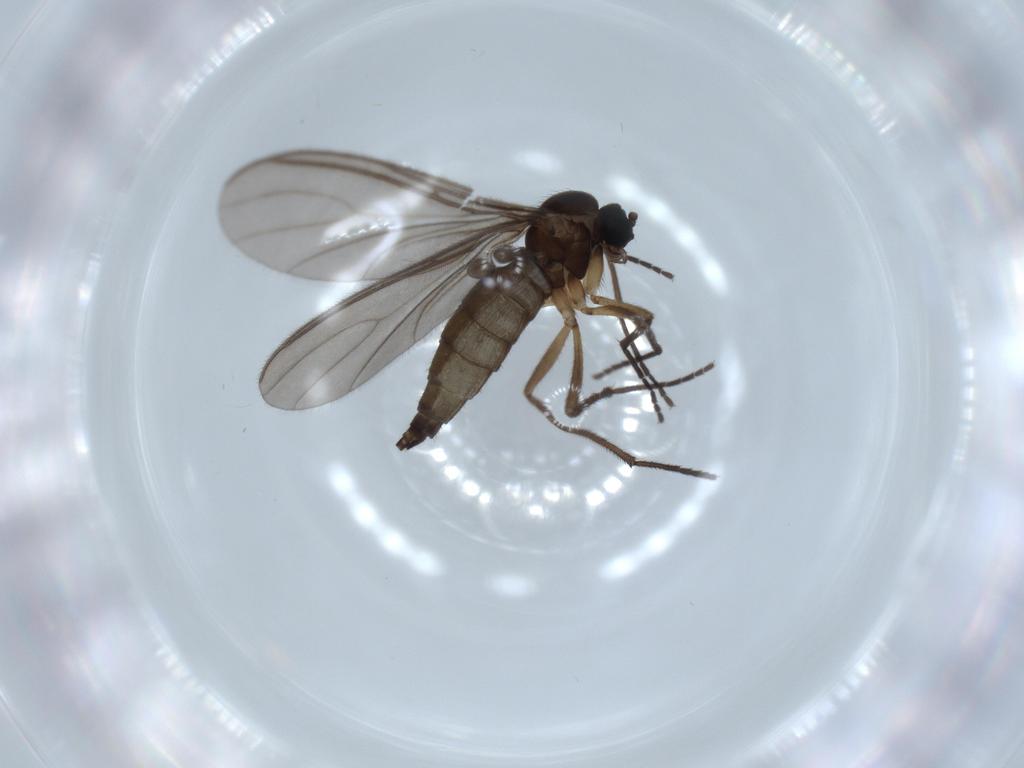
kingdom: Animalia
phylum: Arthropoda
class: Insecta
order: Diptera
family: Sciaridae
